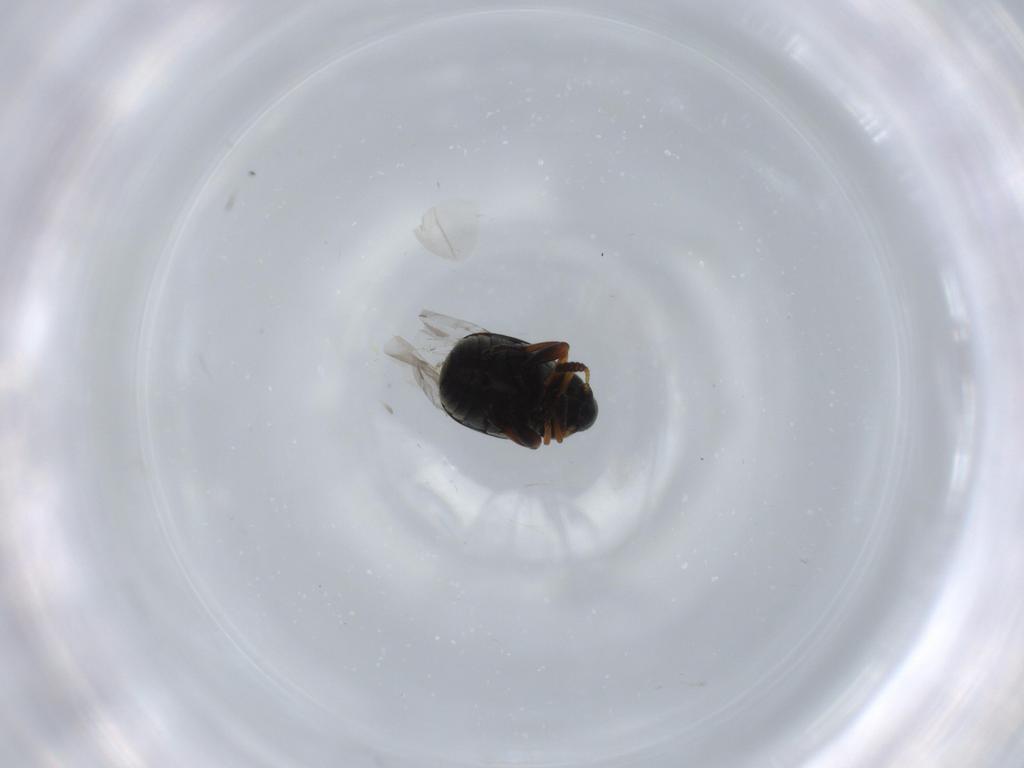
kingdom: Animalia
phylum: Arthropoda
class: Insecta
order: Coleoptera
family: Chrysomelidae
